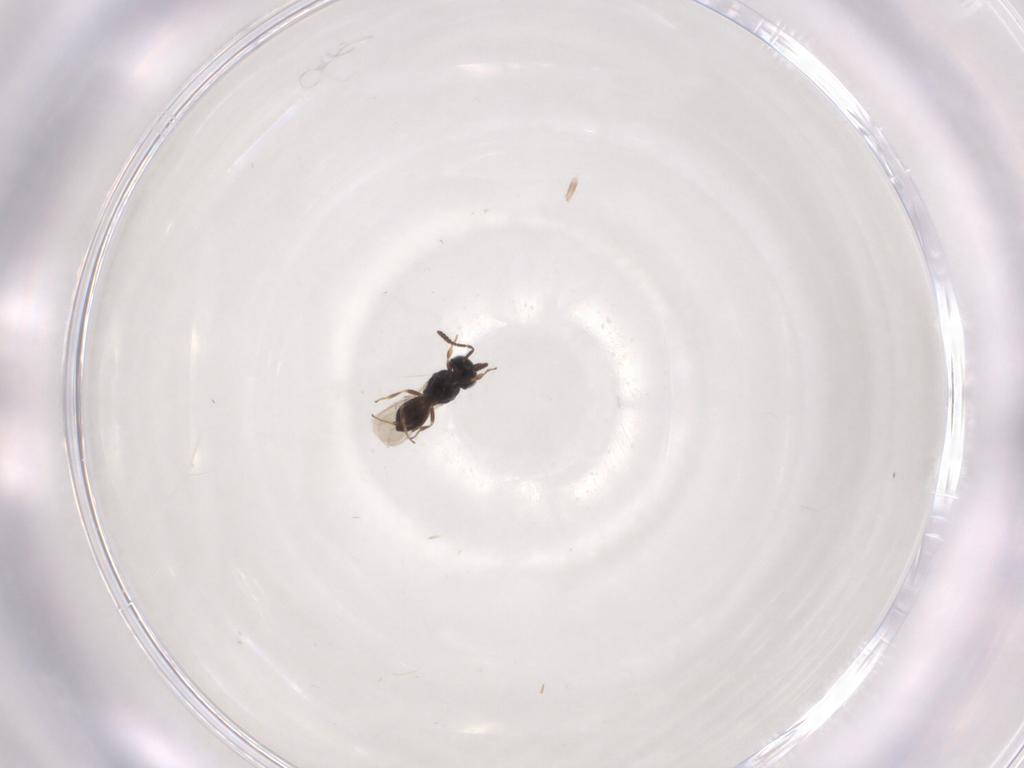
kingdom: Animalia
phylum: Arthropoda
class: Insecta
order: Hymenoptera
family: Scelionidae
